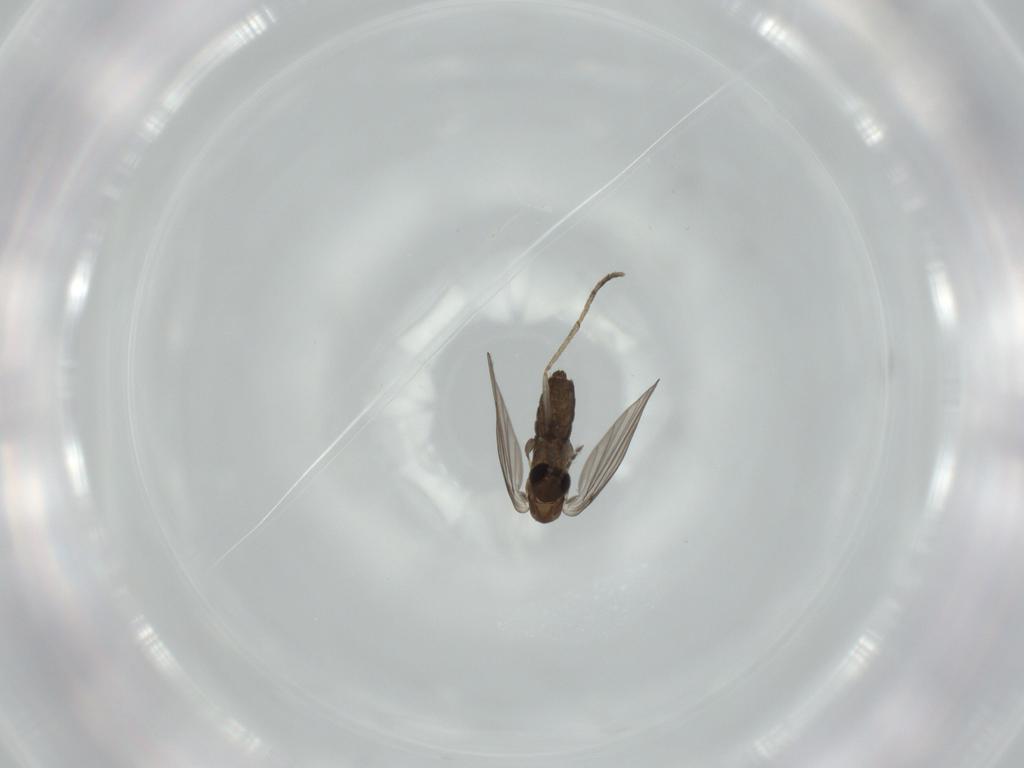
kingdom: Animalia
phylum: Arthropoda
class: Insecta
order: Diptera
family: Psychodidae
